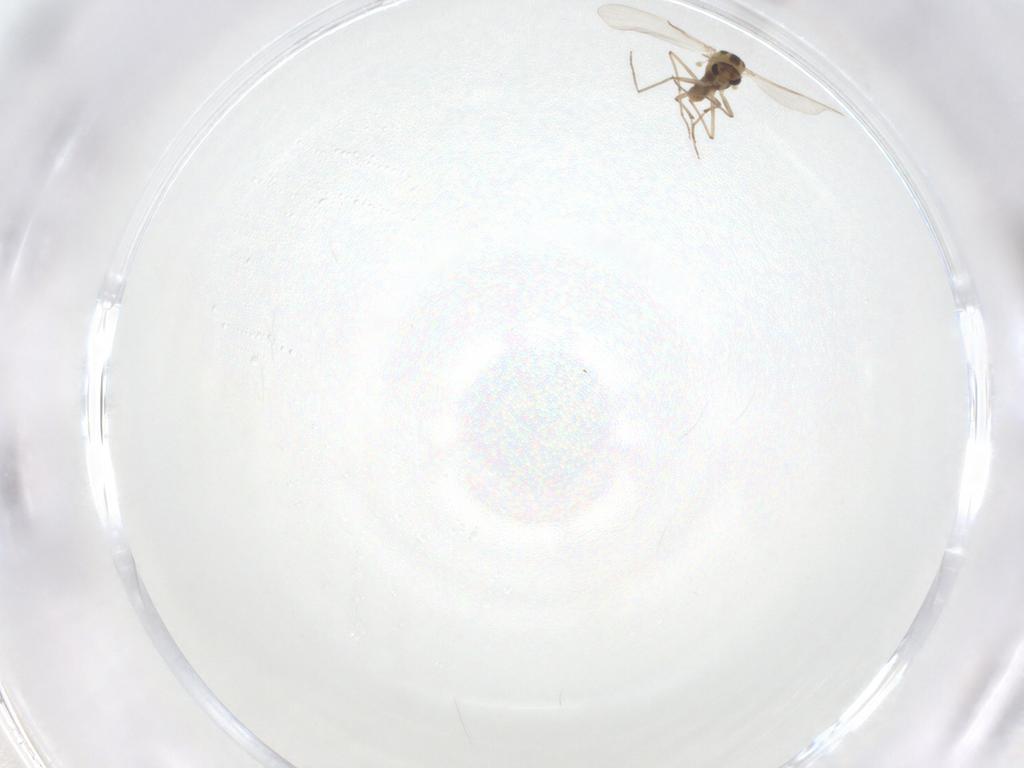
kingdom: Animalia
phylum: Arthropoda
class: Insecta
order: Diptera
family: Chironomidae
